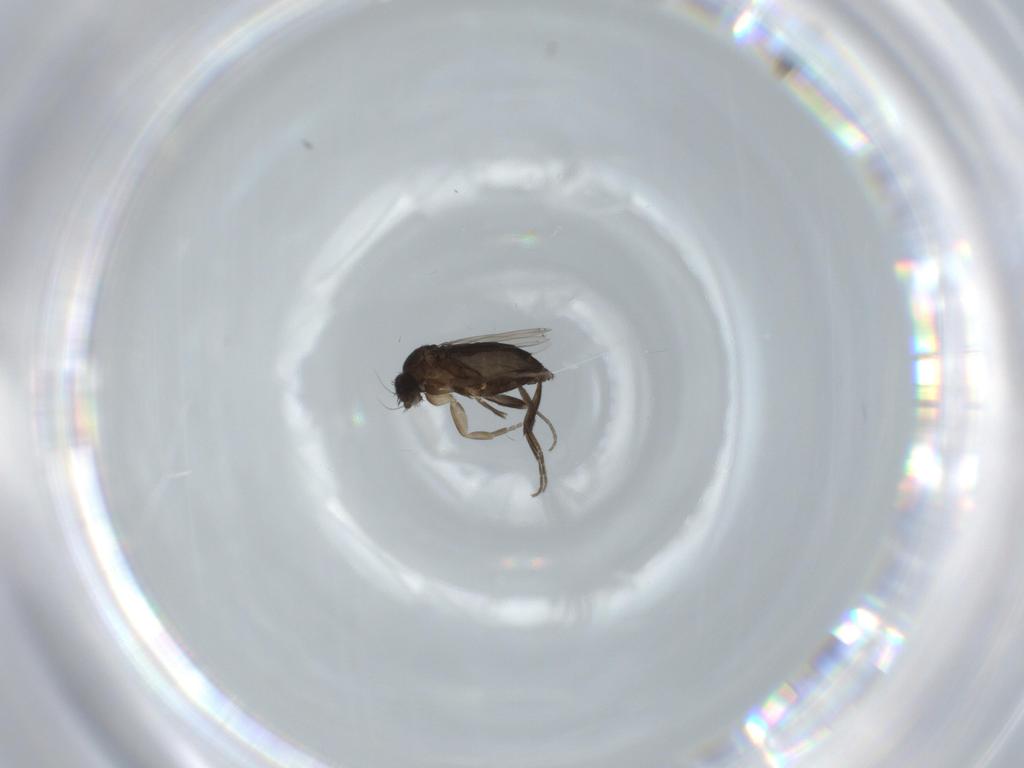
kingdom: Animalia
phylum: Arthropoda
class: Insecta
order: Diptera
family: Phoridae
